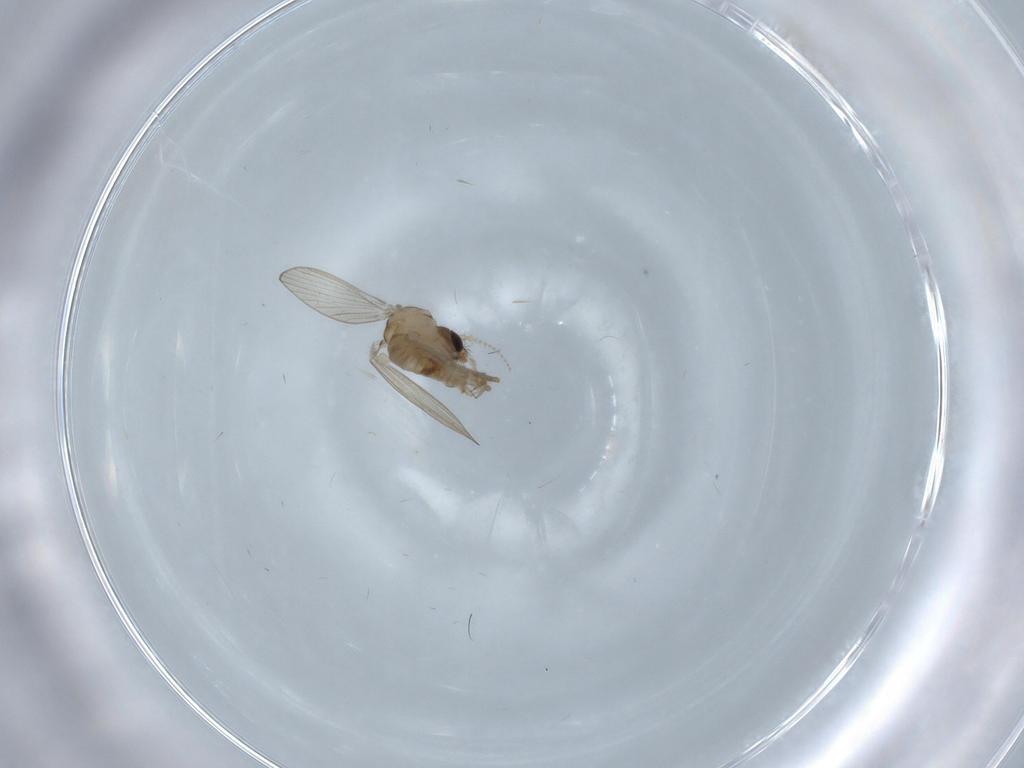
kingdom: Animalia
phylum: Arthropoda
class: Insecta
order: Diptera
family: Psychodidae
